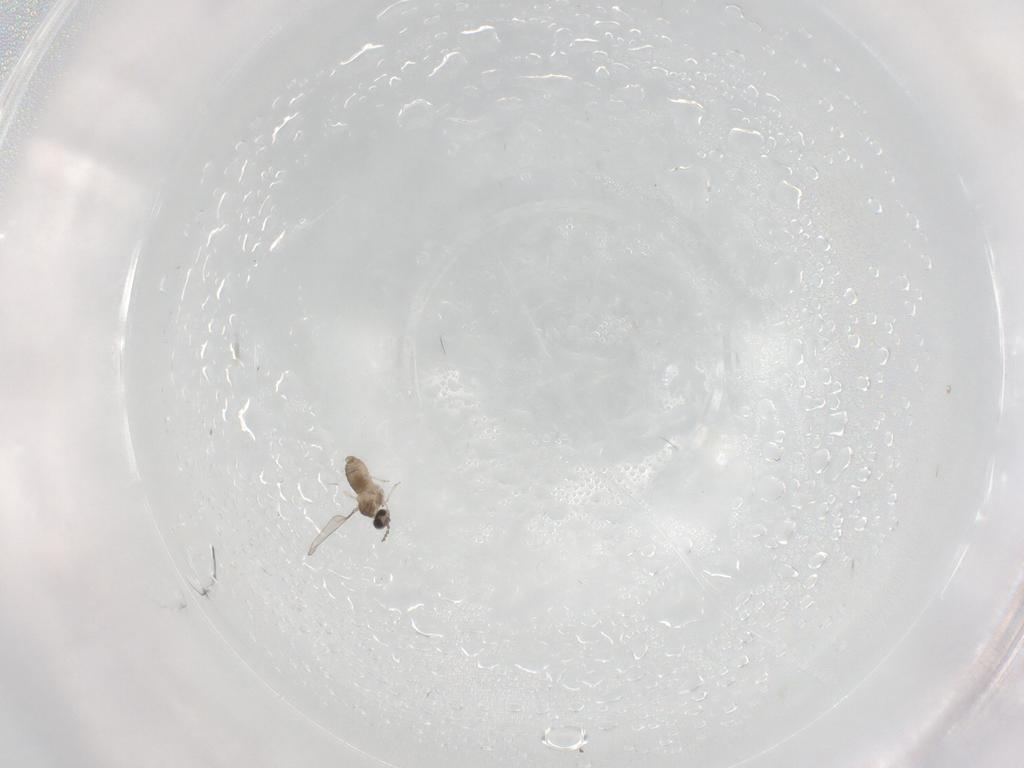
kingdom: Animalia
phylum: Arthropoda
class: Insecta
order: Diptera
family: Cecidomyiidae
